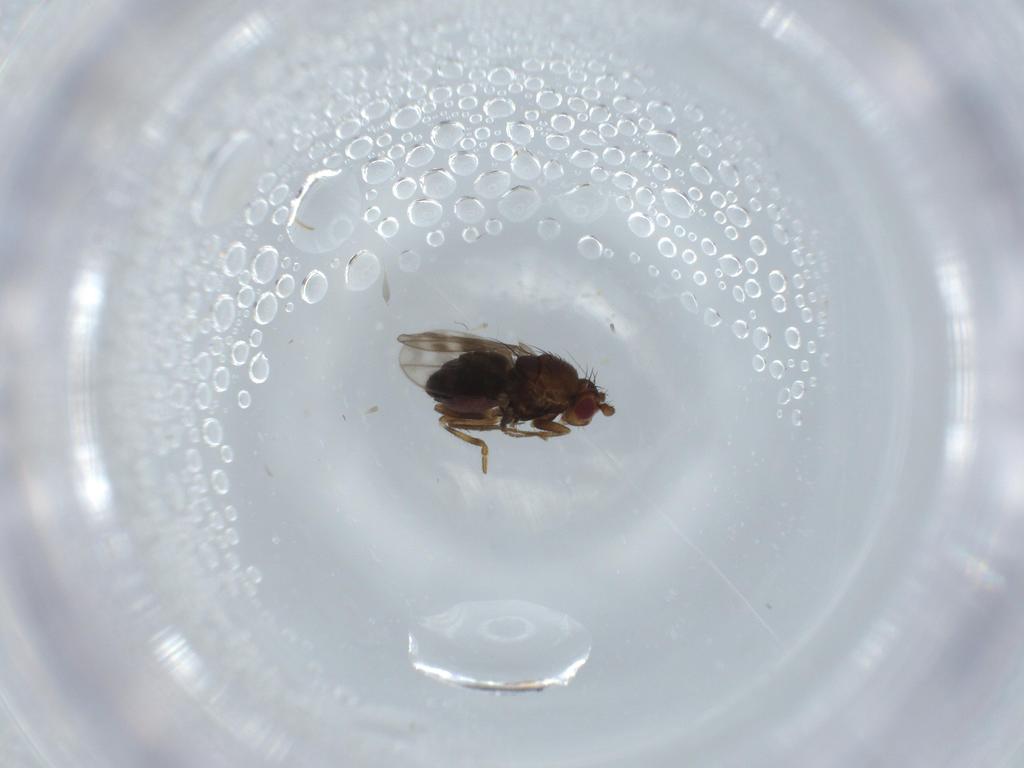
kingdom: Animalia
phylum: Arthropoda
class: Insecta
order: Diptera
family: Sphaeroceridae
